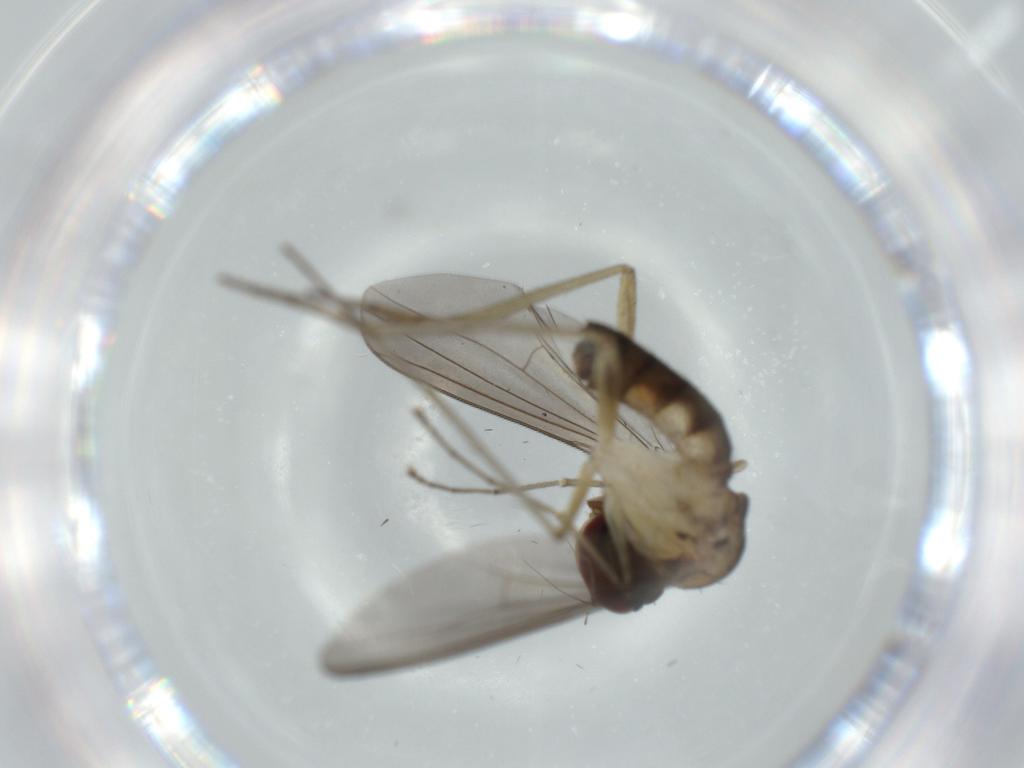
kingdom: Animalia
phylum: Arthropoda
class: Insecta
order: Diptera
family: Dolichopodidae
